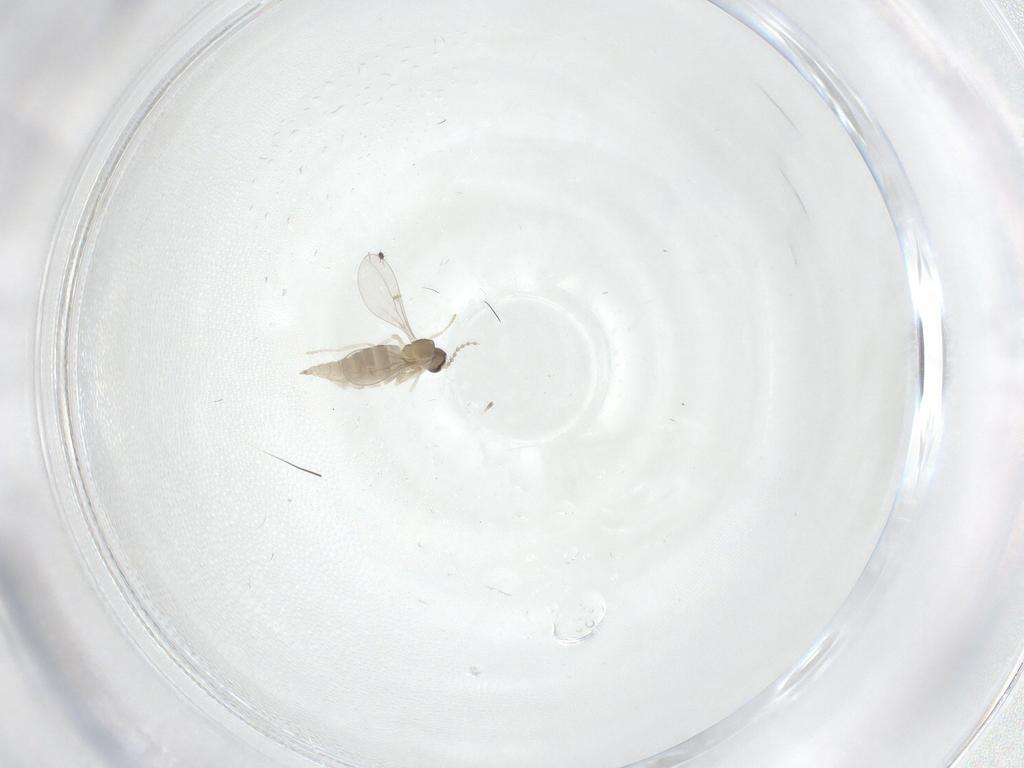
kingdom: Animalia
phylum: Arthropoda
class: Insecta
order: Diptera
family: Cecidomyiidae
